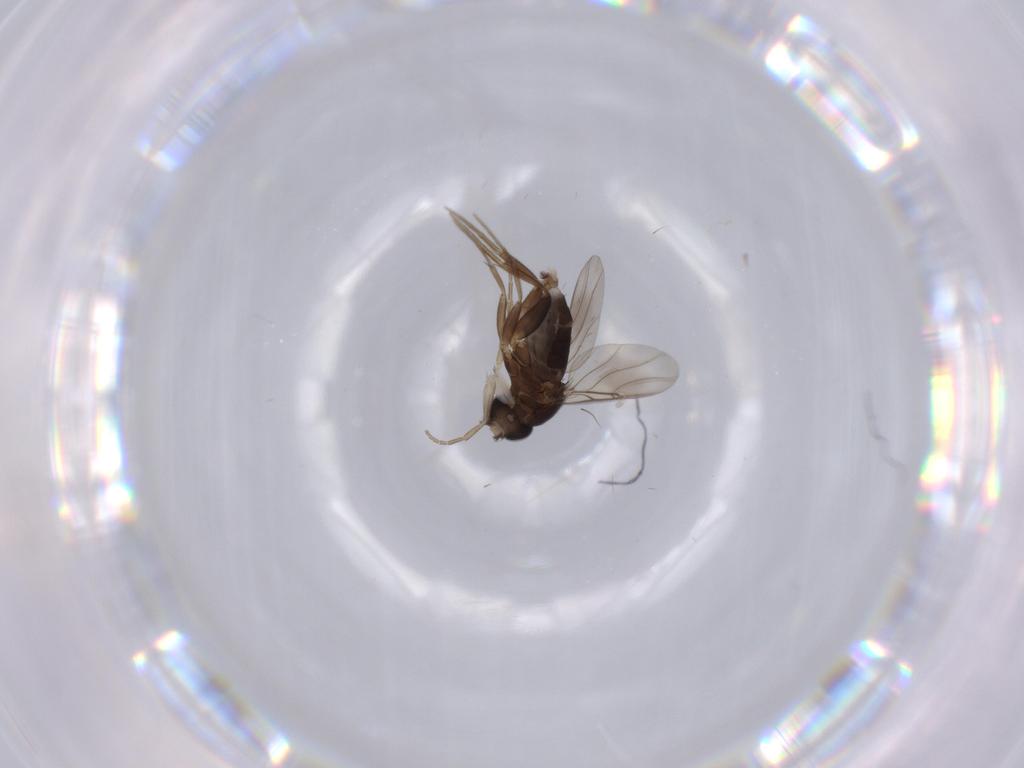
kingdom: Animalia
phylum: Arthropoda
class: Insecta
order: Diptera
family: Phoridae
